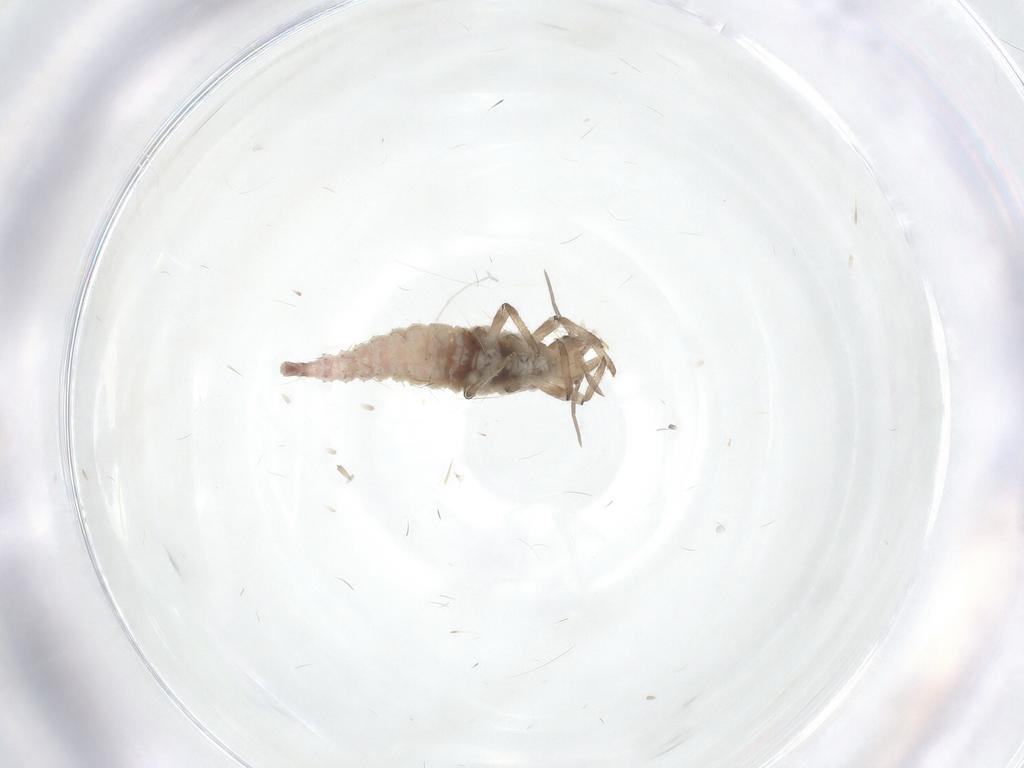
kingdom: Animalia
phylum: Arthropoda
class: Insecta
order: Neuroptera
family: Hemerobiidae
